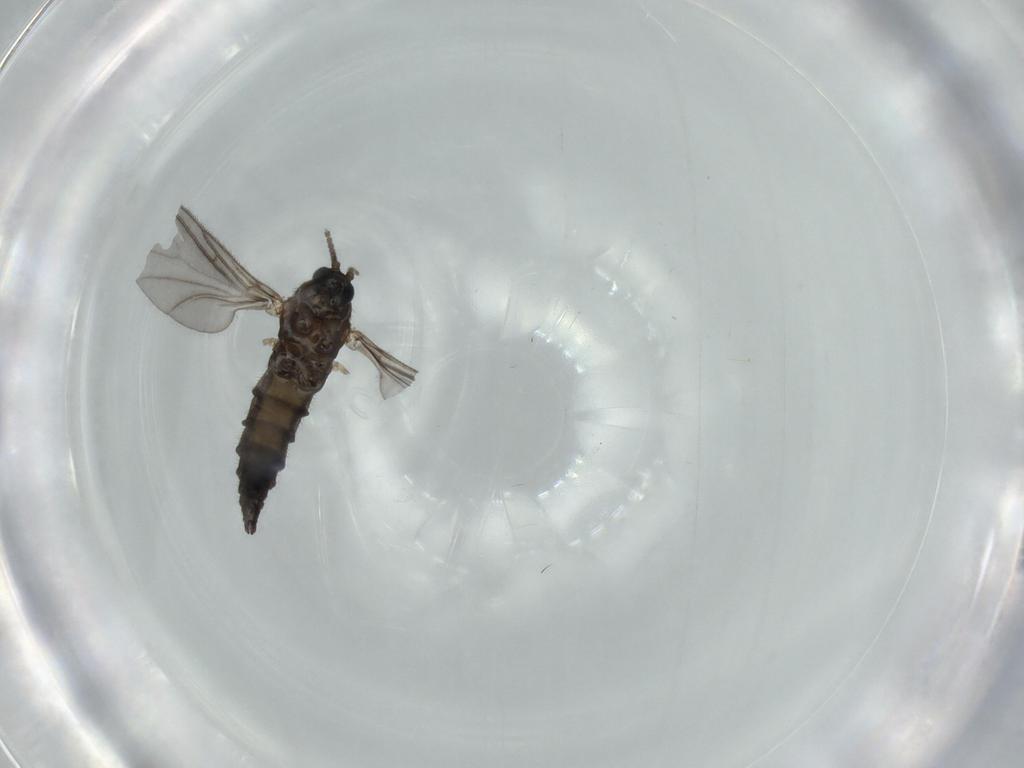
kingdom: Animalia
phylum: Arthropoda
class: Insecta
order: Diptera
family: Sciaridae
